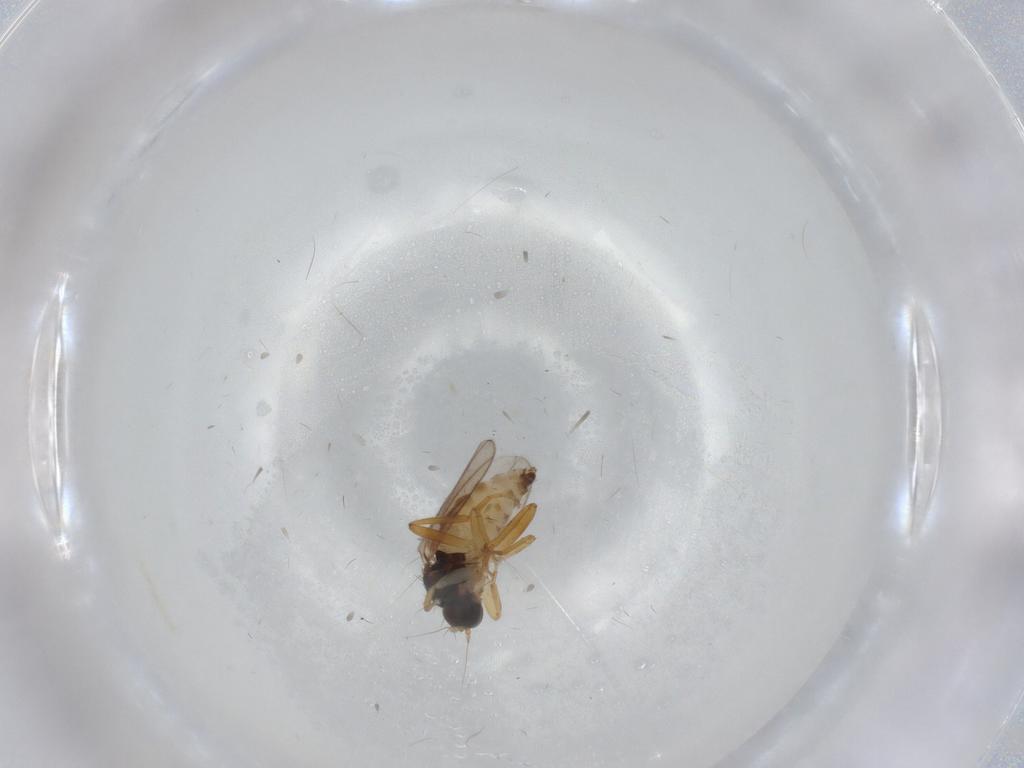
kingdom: Animalia
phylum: Arthropoda
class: Insecta
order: Diptera
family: Hybotidae
